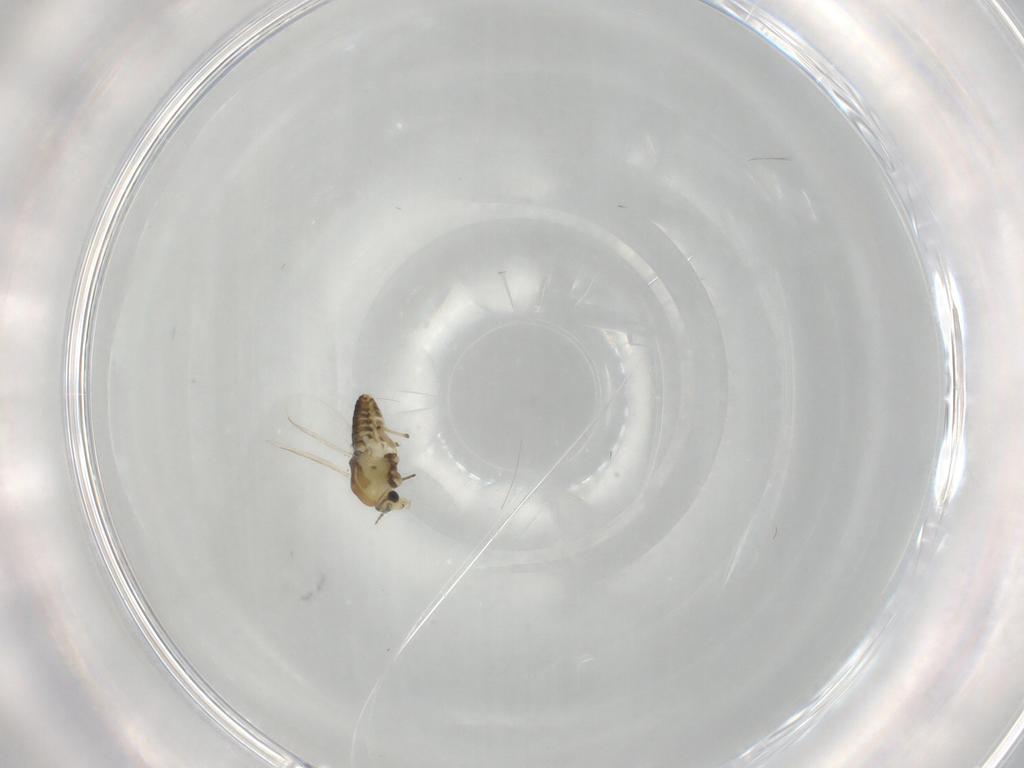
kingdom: Animalia
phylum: Arthropoda
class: Insecta
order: Diptera
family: Chironomidae
